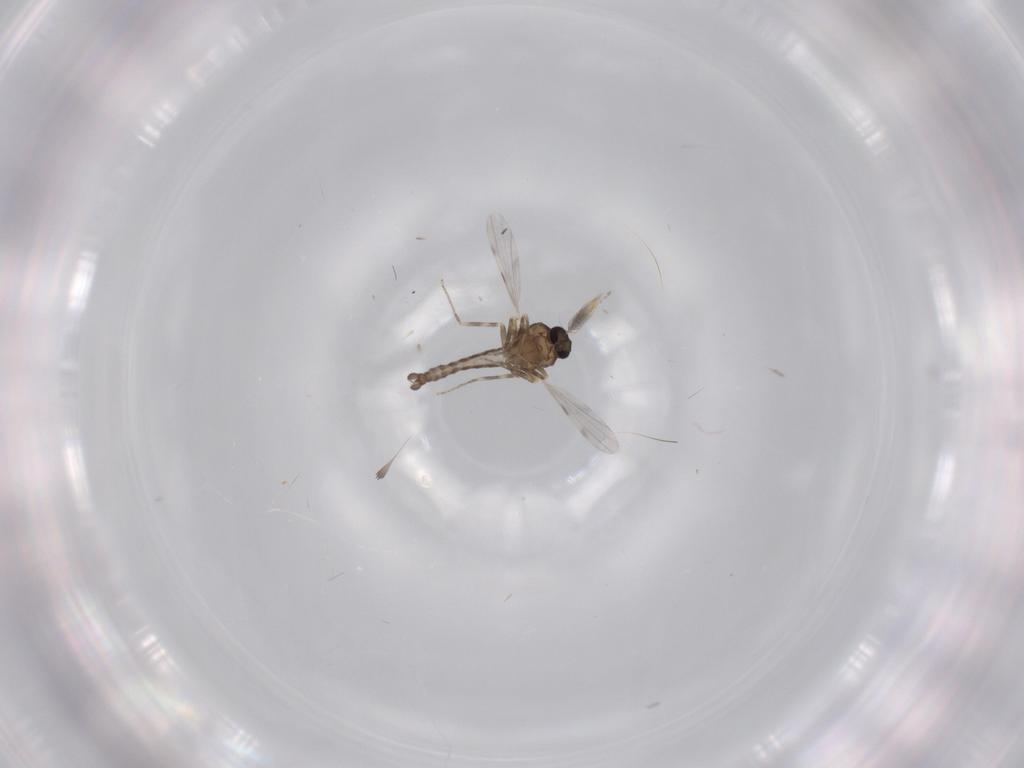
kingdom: Animalia
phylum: Arthropoda
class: Insecta
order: Diptera
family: Ceratopogonidae
